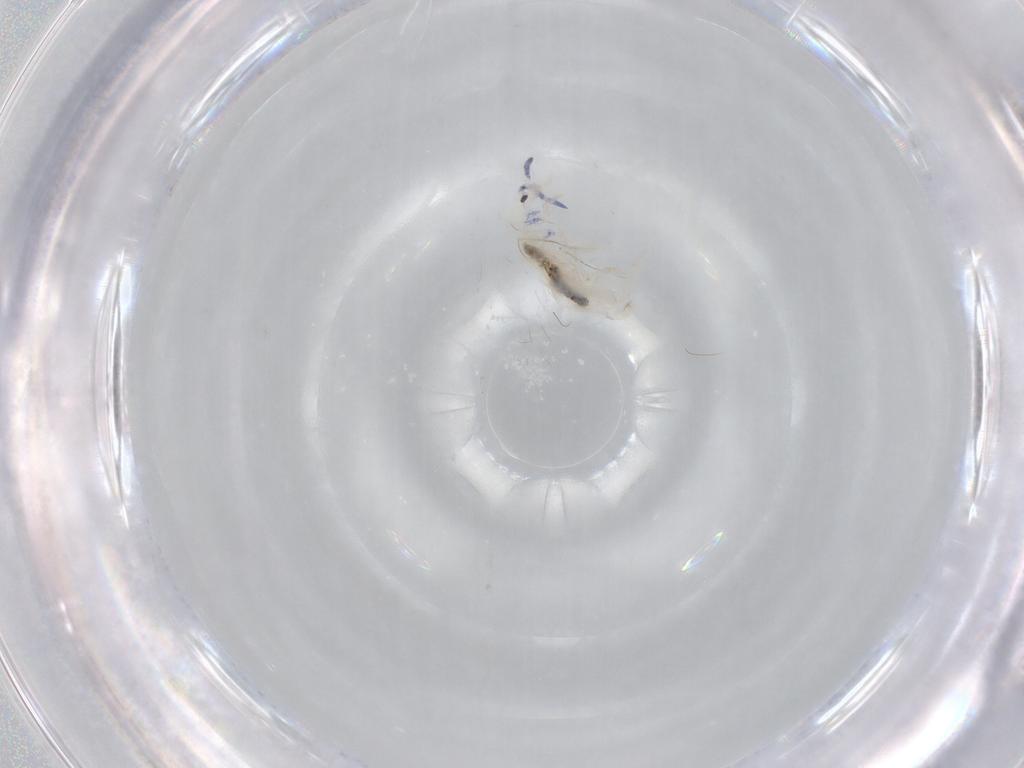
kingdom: Animalia
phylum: Arthropoda
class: Collembola
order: Entomobryomorpha
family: Entomobryidae
